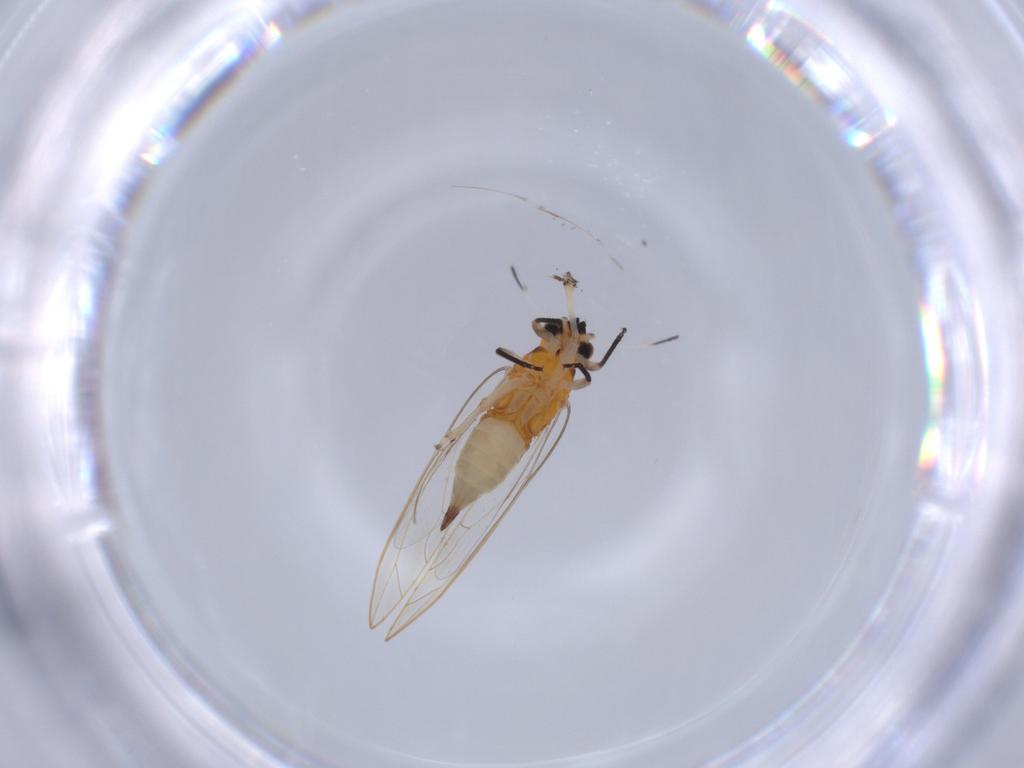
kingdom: Animalia
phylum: Arthropoda
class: Insecta
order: Hemiptera
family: Triozidae
